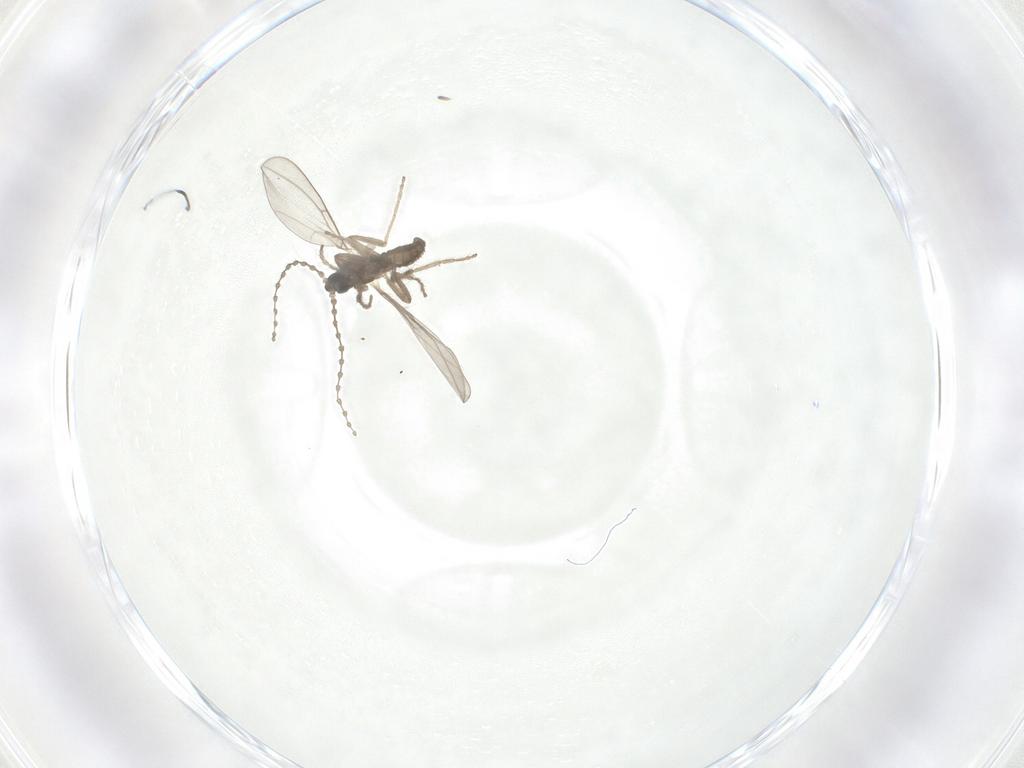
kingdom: Animalia
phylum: Arthropoda
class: Insecta
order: Diptera
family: Cecidomyiidae
